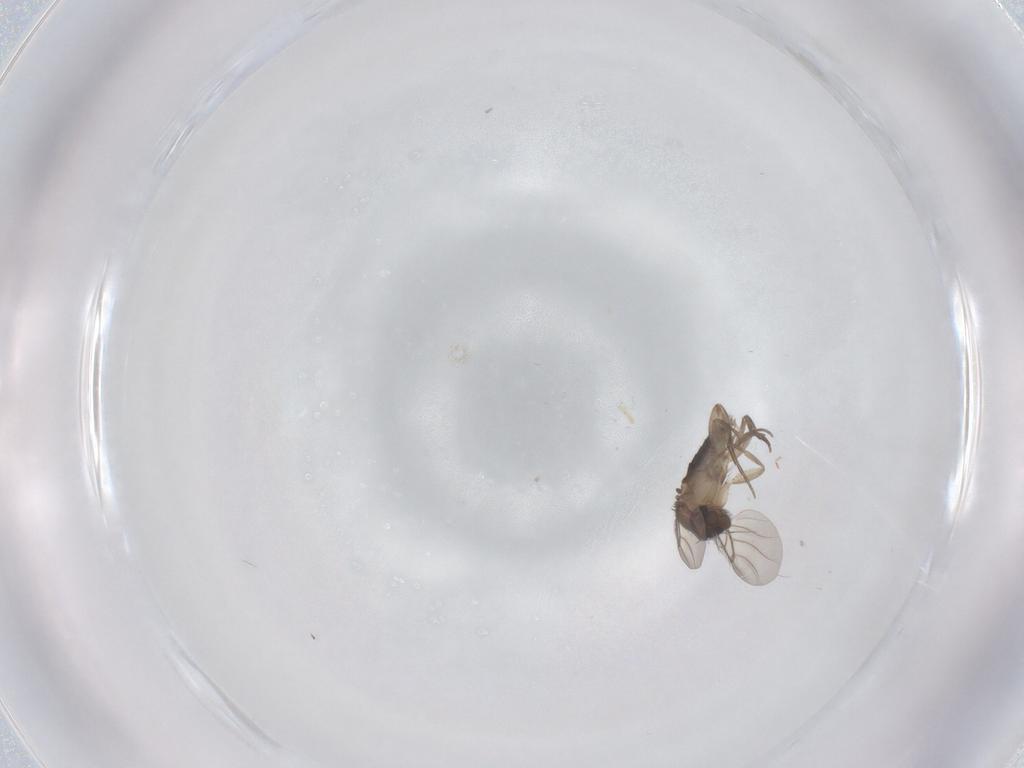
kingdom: Animalia
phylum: Arthropoda
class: Insecta
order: Diptera
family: Phoridae
